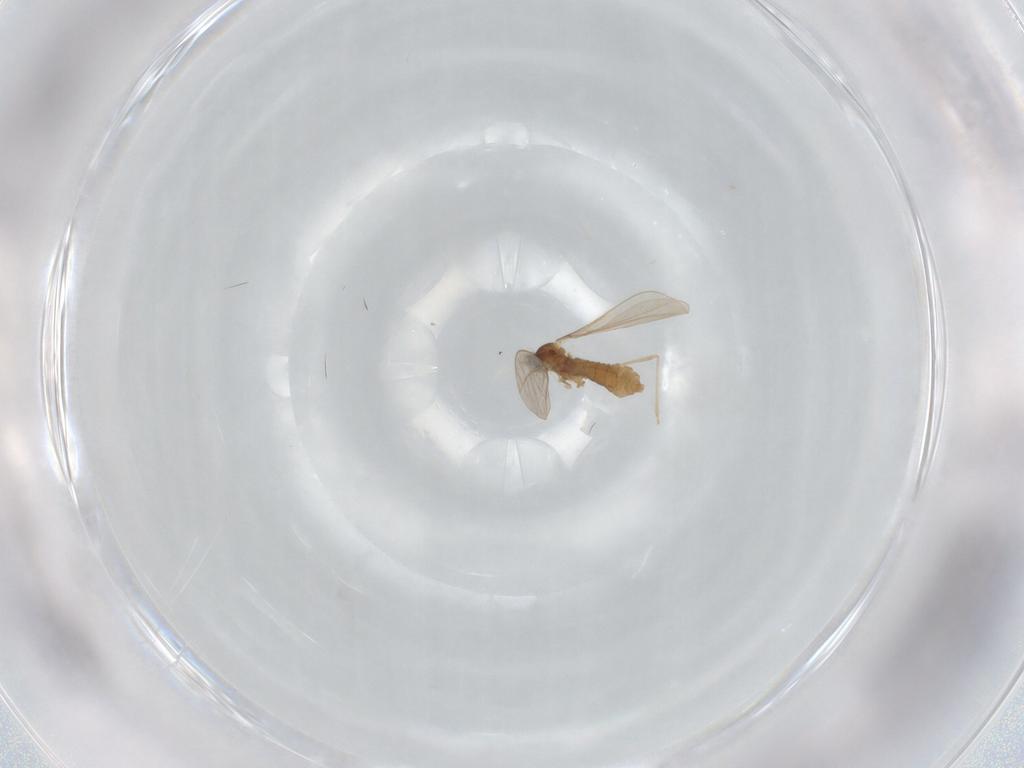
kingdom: Animalia
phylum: Arthropoda
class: Insecta
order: Diptera
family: Cecidomyiidae
